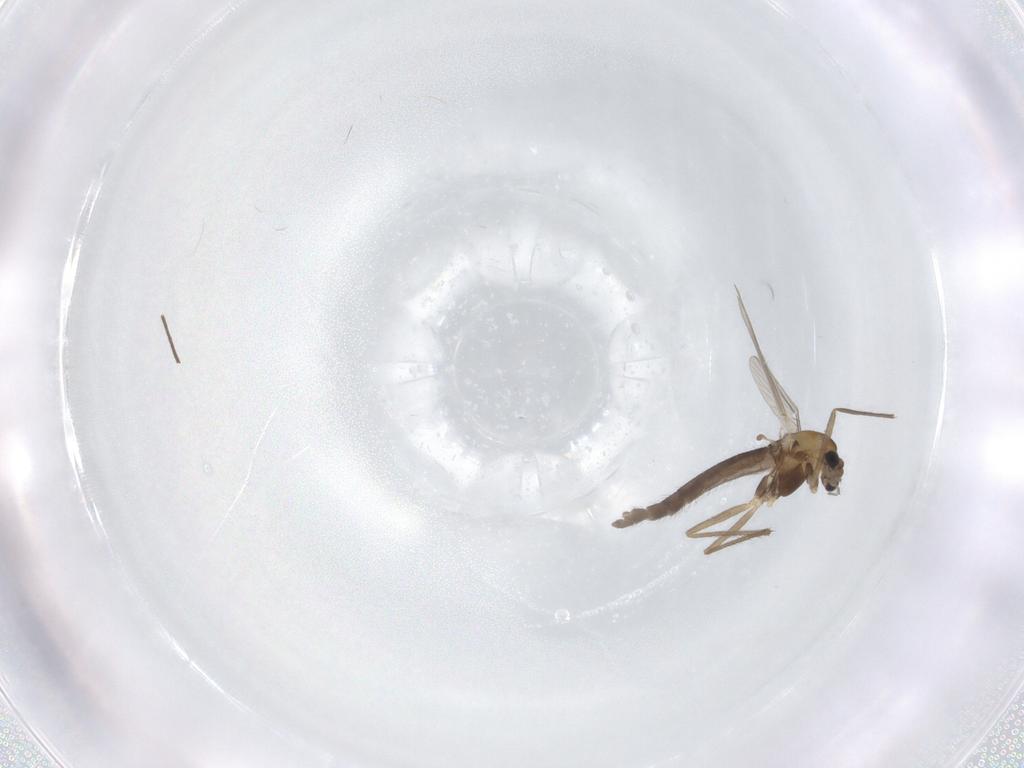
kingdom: Animalia
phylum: Arthropoda
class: Insecta
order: Diptera
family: Chironomidae
